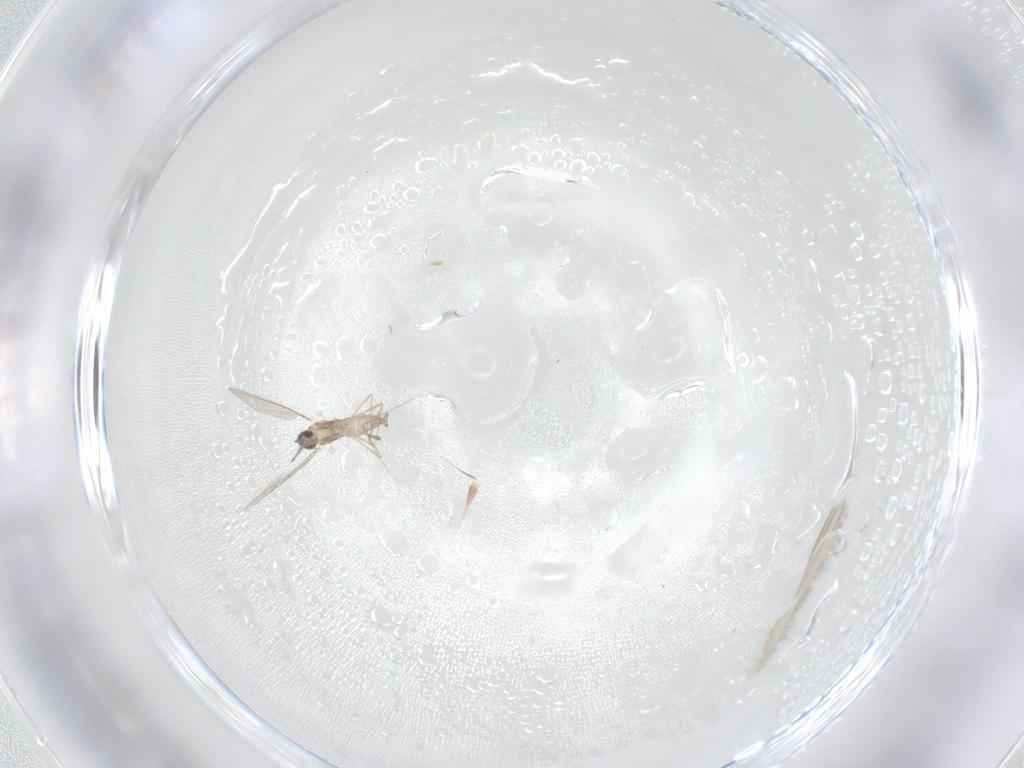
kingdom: Animalia
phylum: Arthropoda
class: Insecta
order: Diptera
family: Cecidomyiidae
